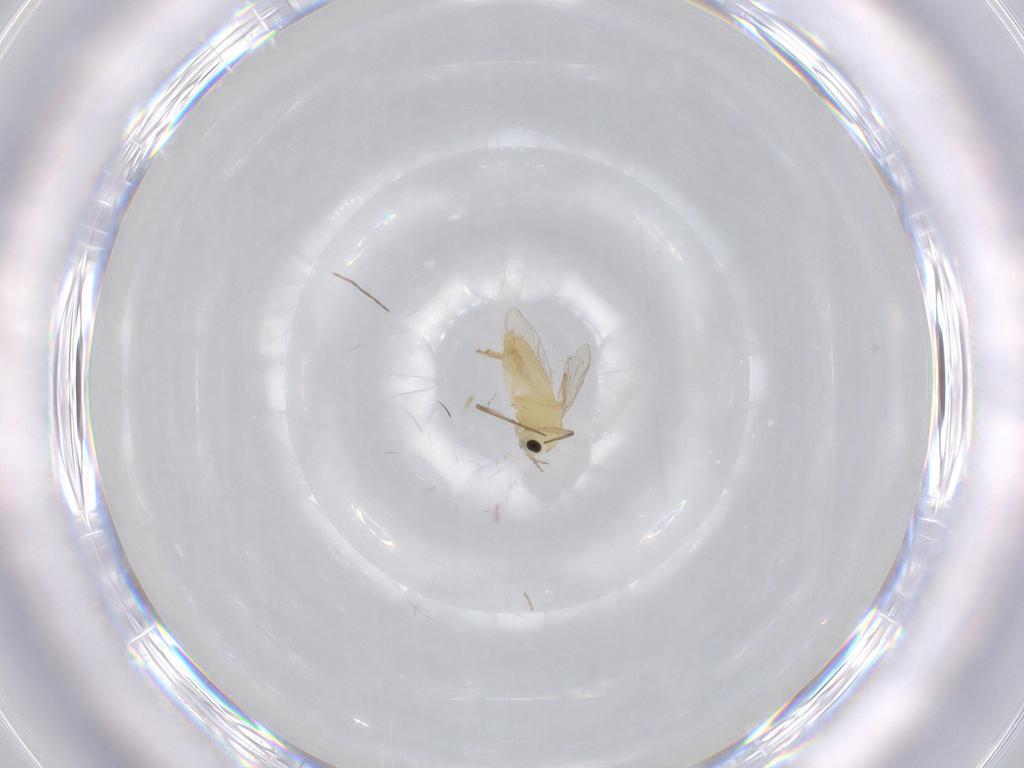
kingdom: Animalia
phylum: Arthropoda
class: Insecta
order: Diptera
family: Chironomidae
